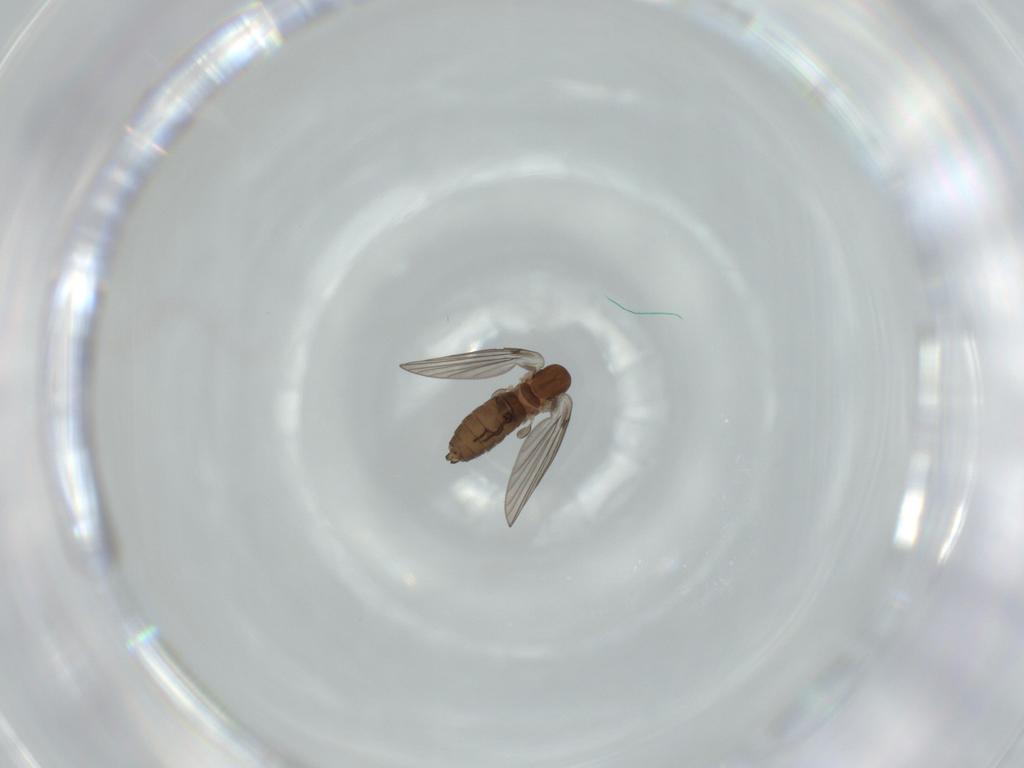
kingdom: Animalia
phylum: Arthropoda
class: Insecta
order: Diptera
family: Psychodidae
